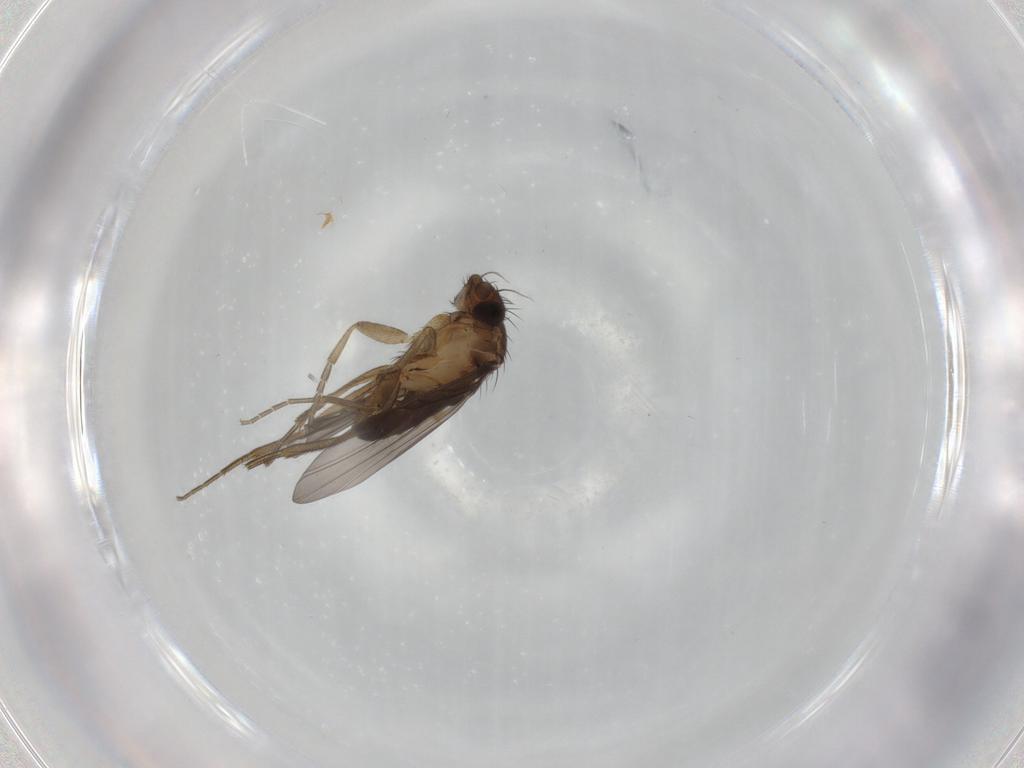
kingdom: Animalia
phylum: Arthropoda
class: Insecta
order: Diptera
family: Phoridae
